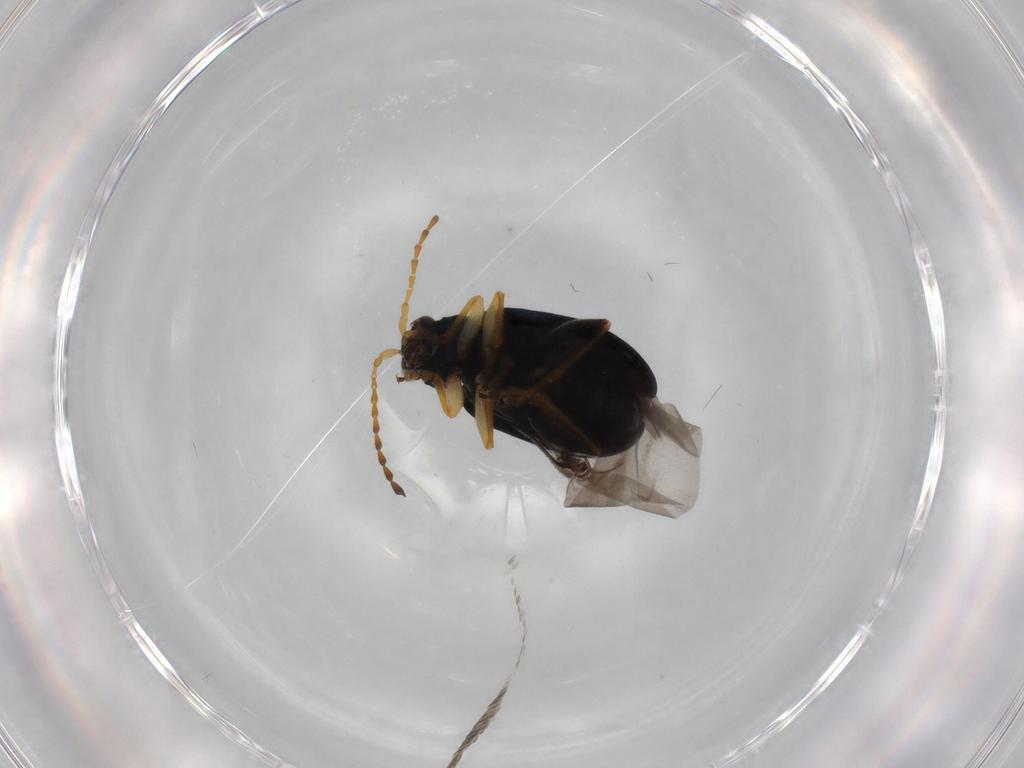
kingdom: Animalia
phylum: Arthropoda
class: Insecta
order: Coleoptera
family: Chrysomelidae
